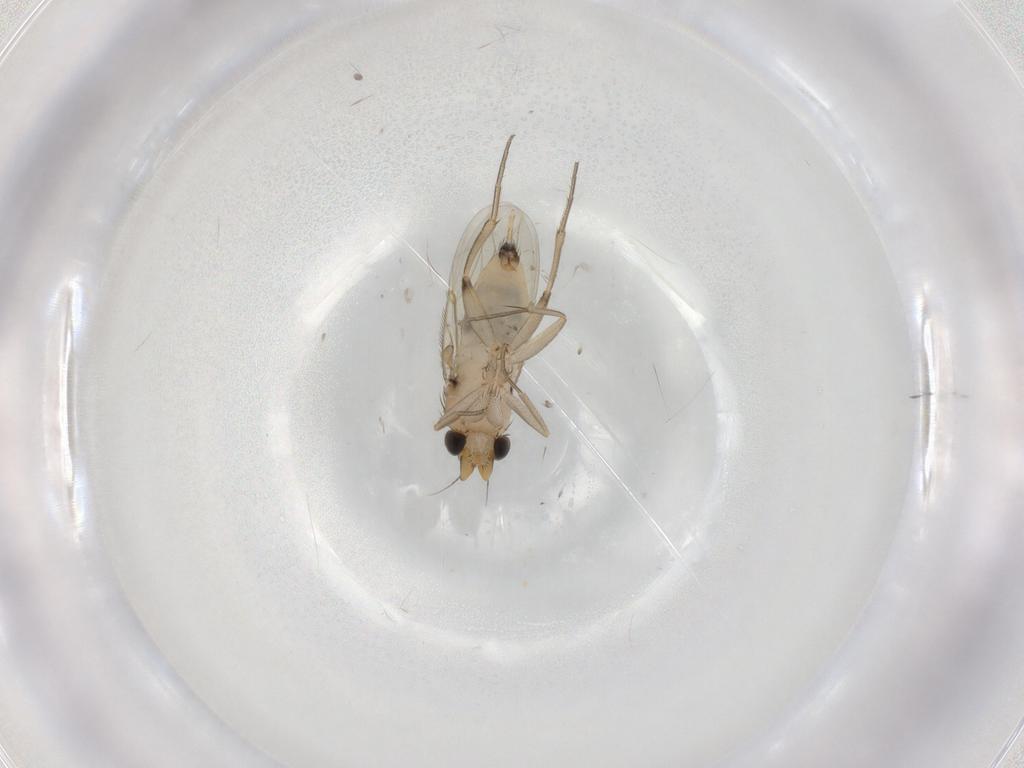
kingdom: Animalia
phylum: Arthropoda
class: Insecta
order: Diptera
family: Phoridae
